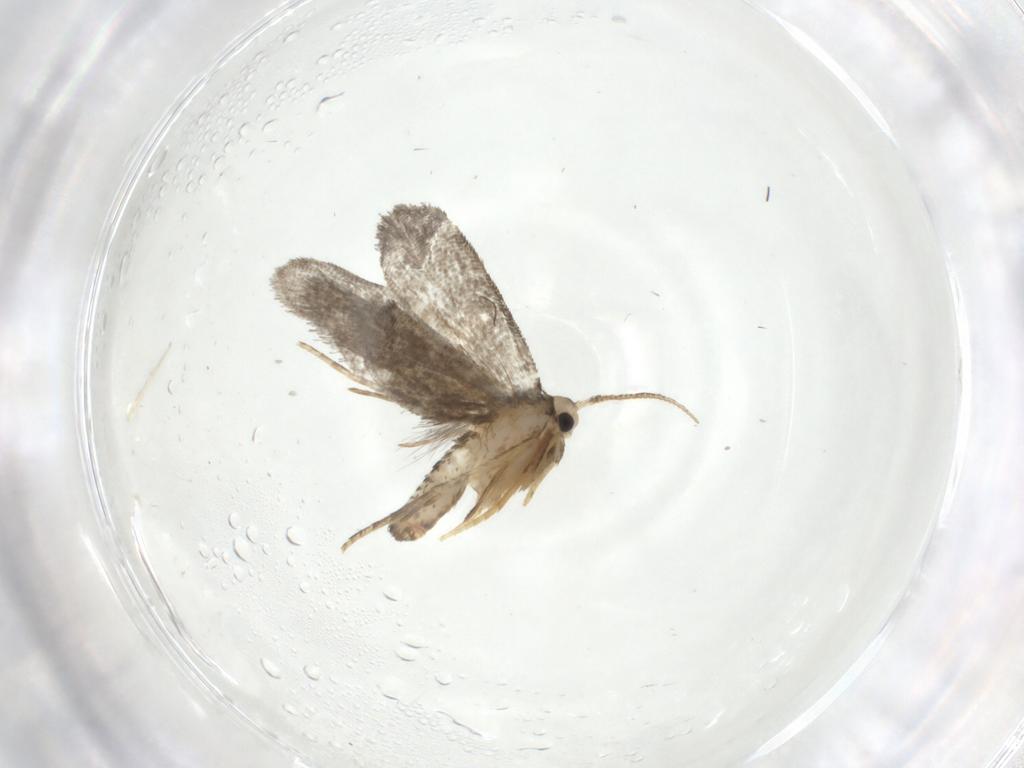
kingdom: Animalia
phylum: Arthropoda
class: Insecta
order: Lepidoptera
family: Psychidae
